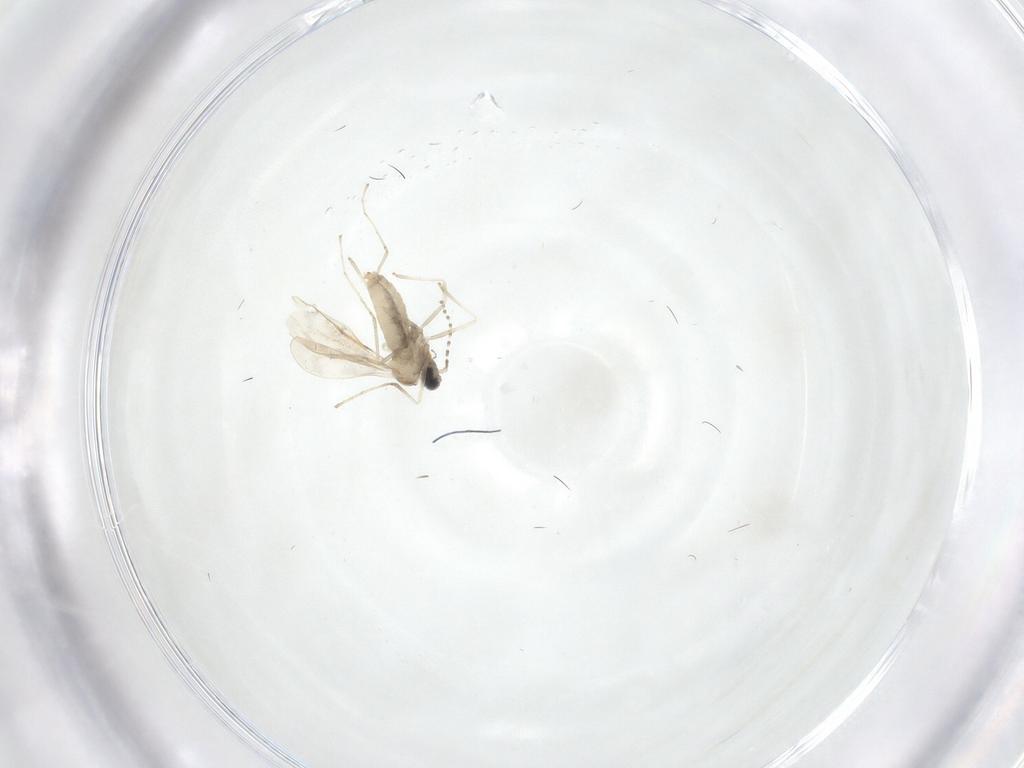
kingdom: Animalia
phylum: Arthropoda
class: Insecta
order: Diptera
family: Cecidomyiidae
